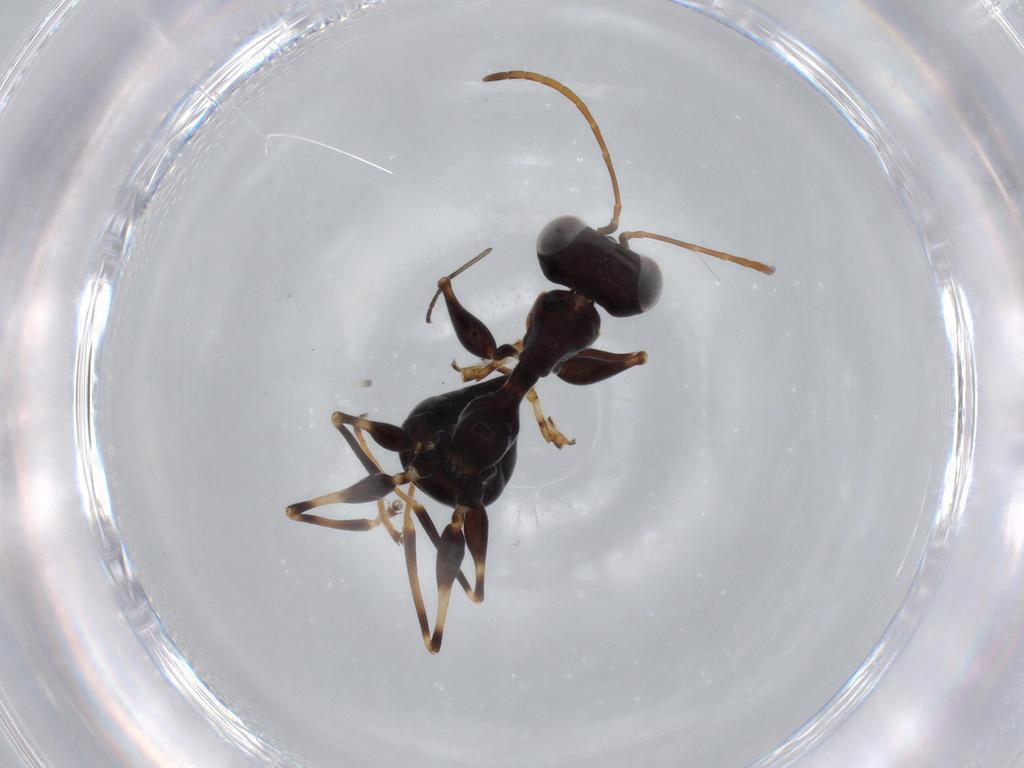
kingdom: Animalia
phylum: Arthropoda
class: Insecta
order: Hymenoptera
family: Dryinidae
